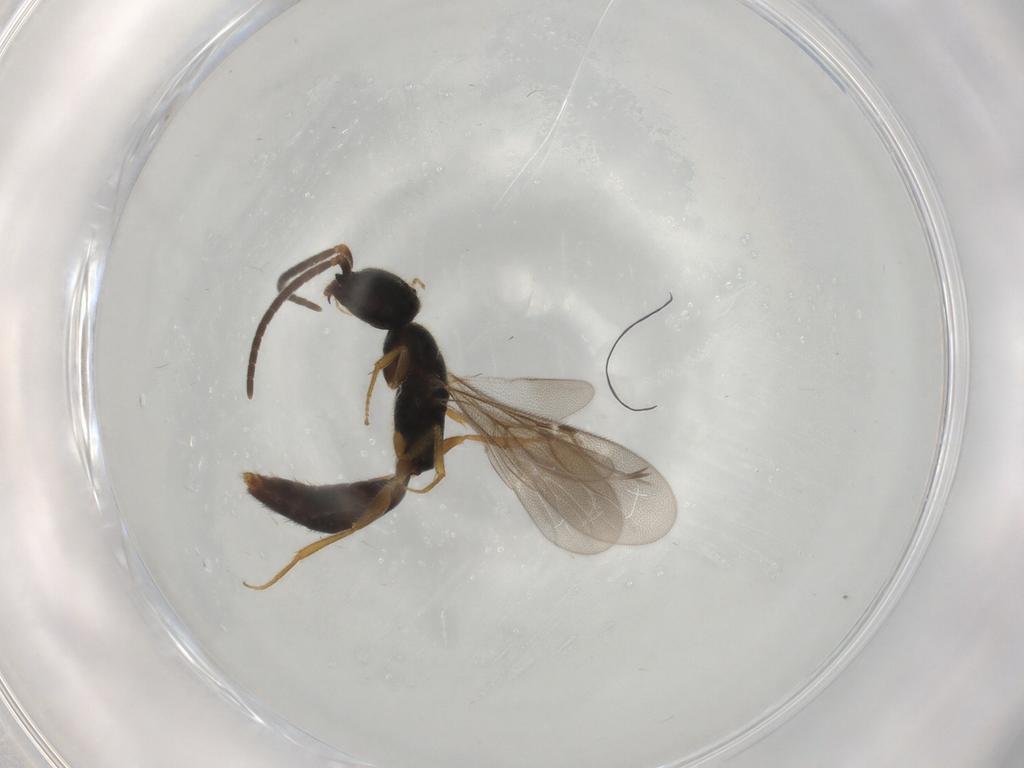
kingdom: Animalia
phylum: Arthropoda
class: Insecta
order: Hymenoptera
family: Bethylidae
